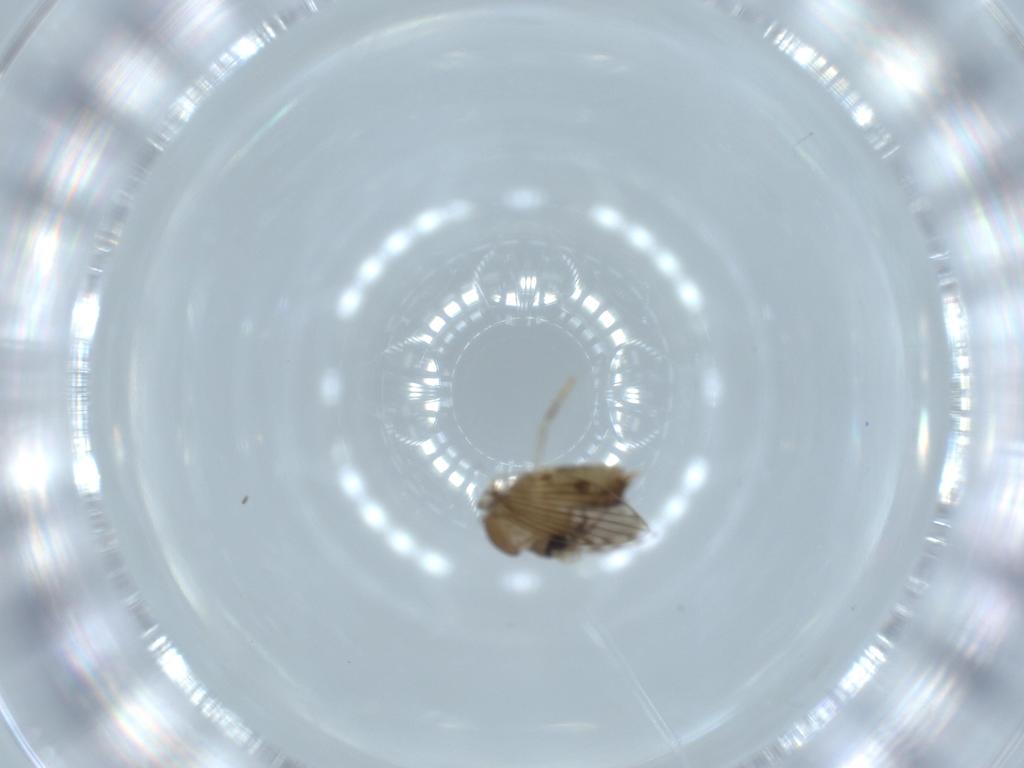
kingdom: Animalia
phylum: Arthropoda
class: Insecta
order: Diptera
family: Psychodidae
